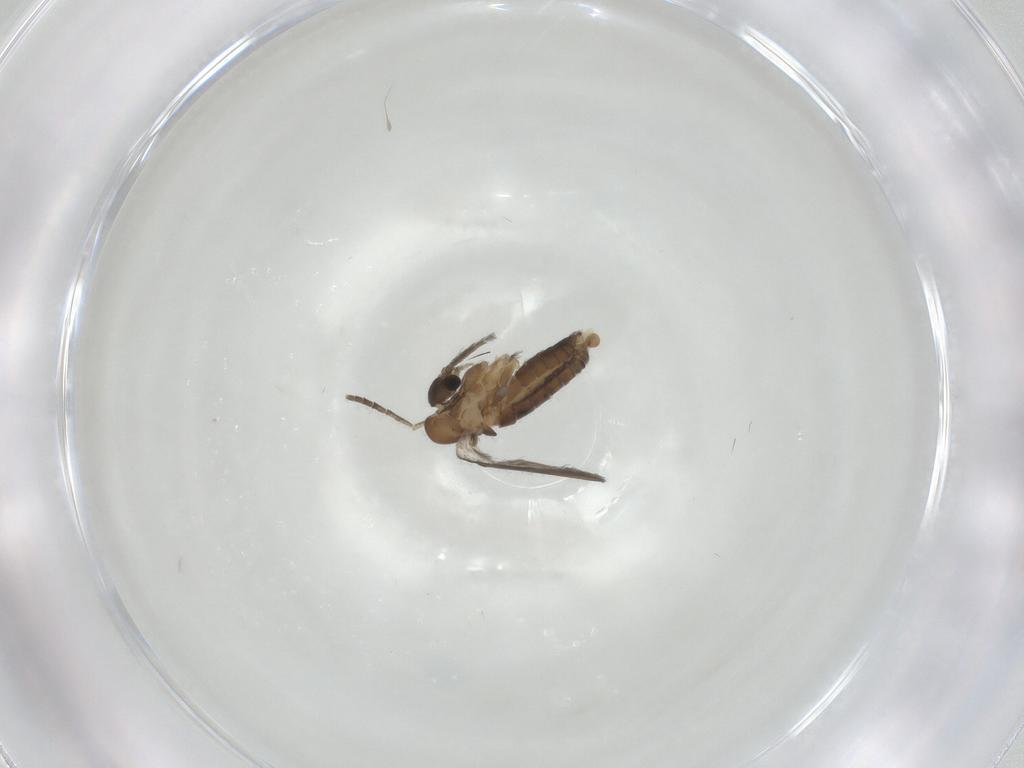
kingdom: Animalia
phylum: Arthropoda
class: Insecta
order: Diptera
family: Psychodidae
